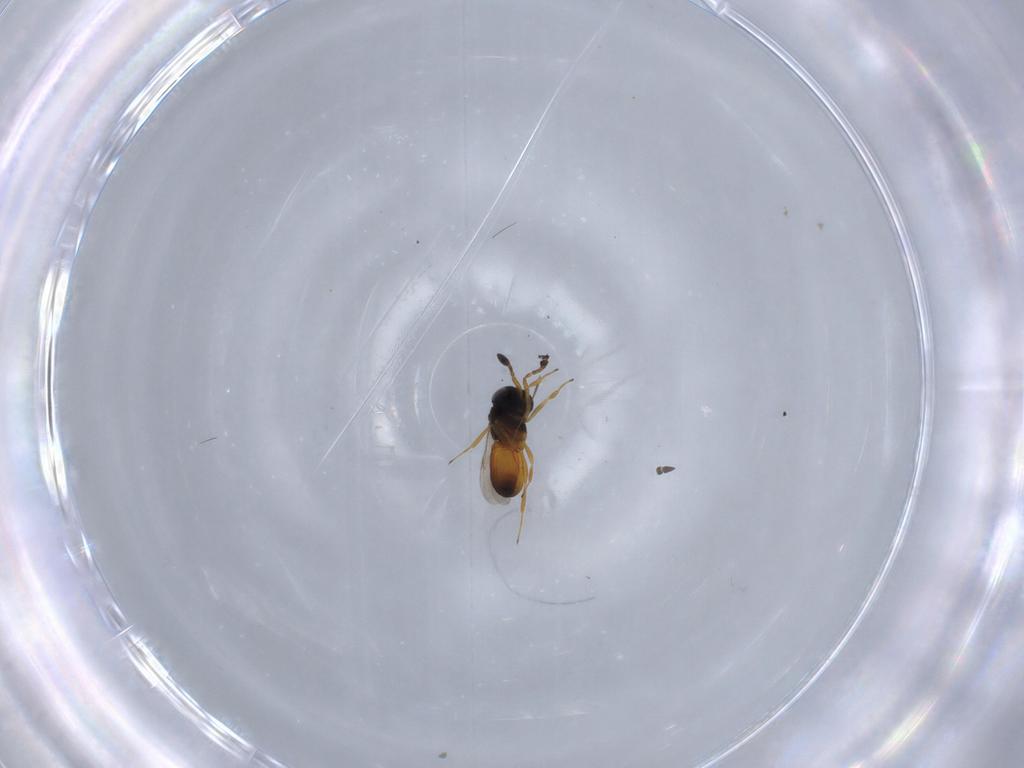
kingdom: Animalia
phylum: Arthropoda
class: Insecta
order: Hymenoptera
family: Scelionidae
